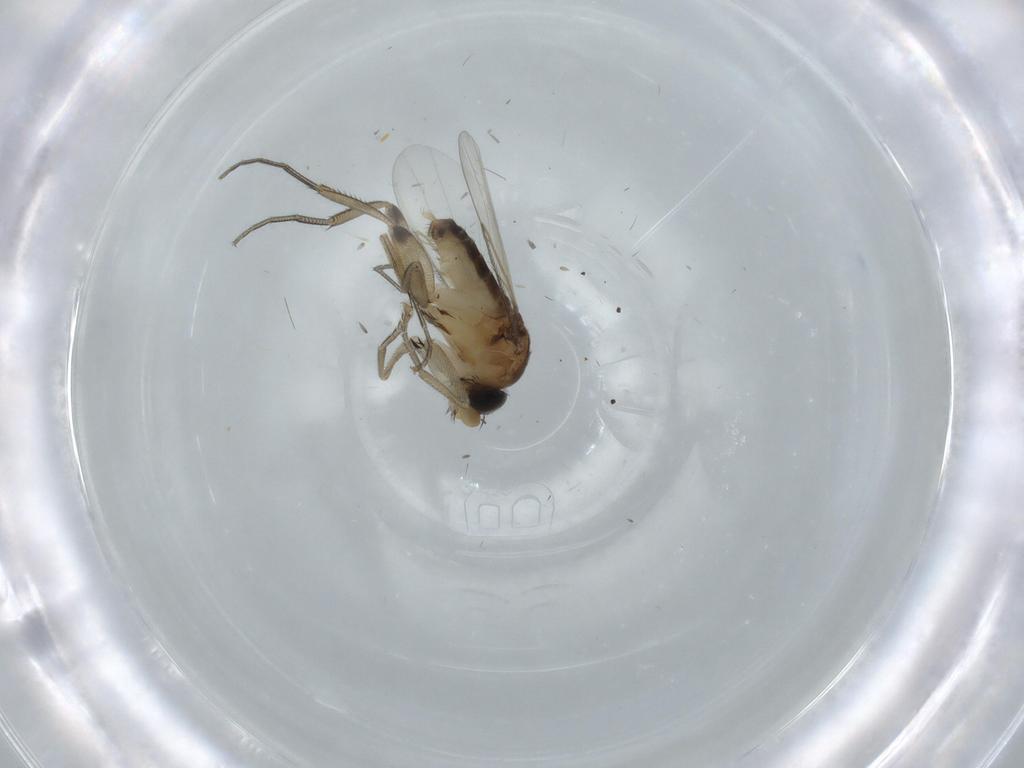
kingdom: Animalia
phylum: Arthropoda
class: Insecta
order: Diptera
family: Phoridae
